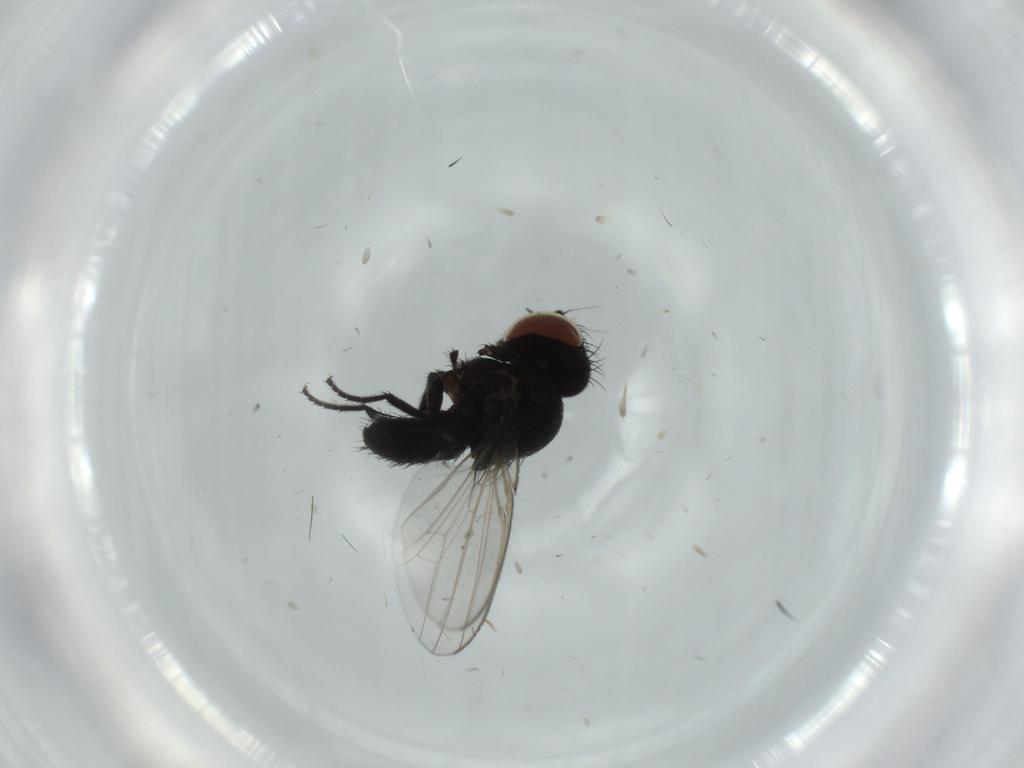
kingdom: Animalia
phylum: Arthropoda
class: Insecta
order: Diptera
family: Milichiidae
